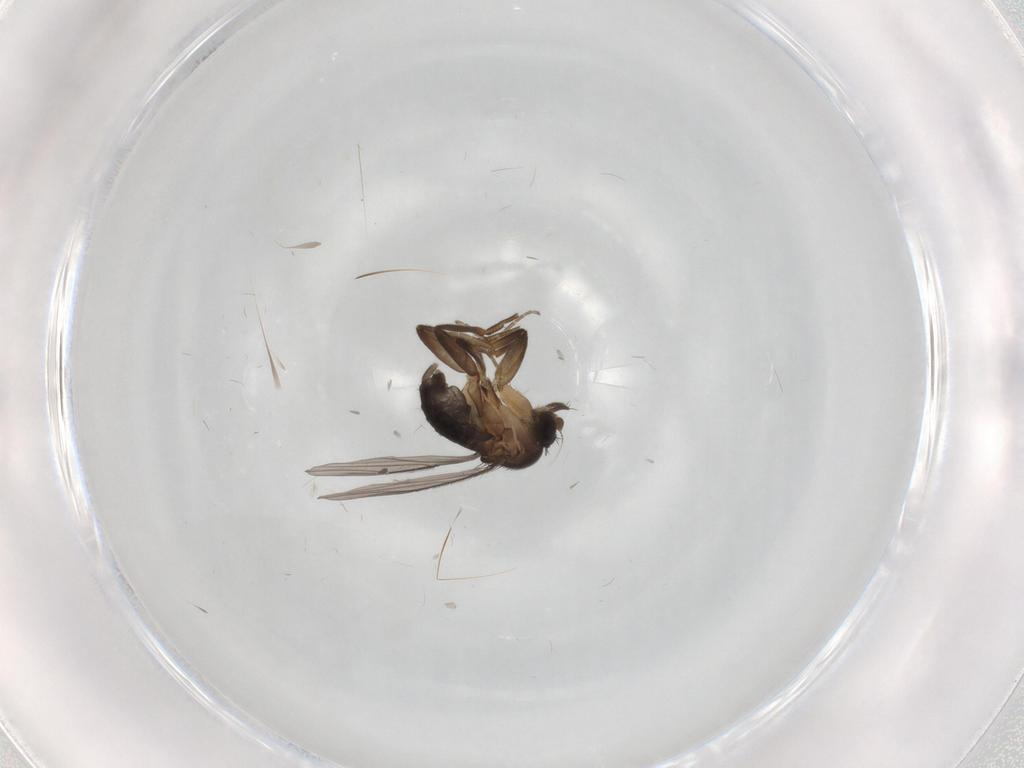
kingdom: Animalia
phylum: Arthropoda
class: Insecta
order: Diptera
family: Phoridae
